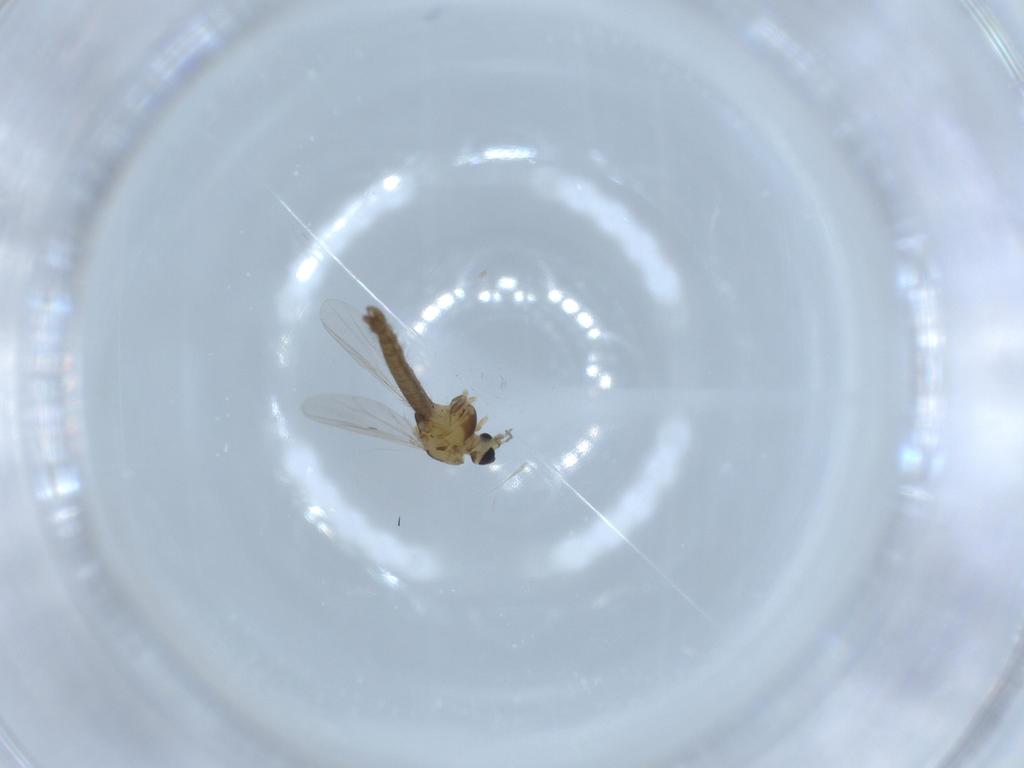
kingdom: Animalia
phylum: Arthropoda
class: Insecta
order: Diptera
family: Chironomidae
